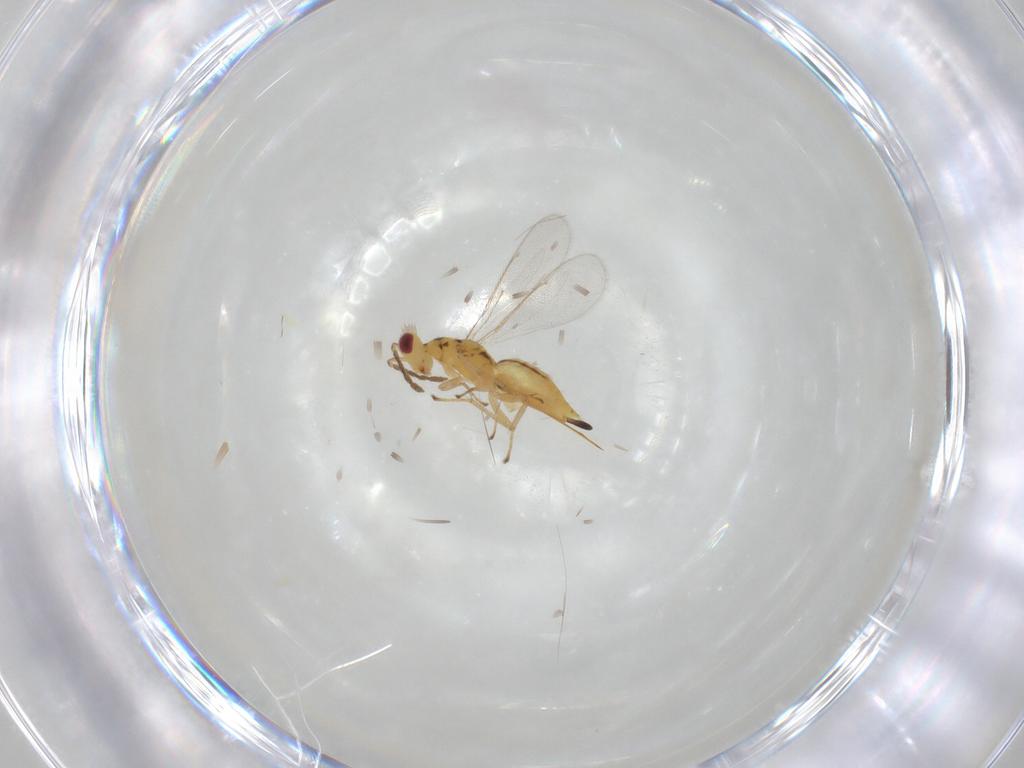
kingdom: Animalia
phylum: Arthropoda
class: Insecta
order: Hymenoptera
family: Eulophidae
